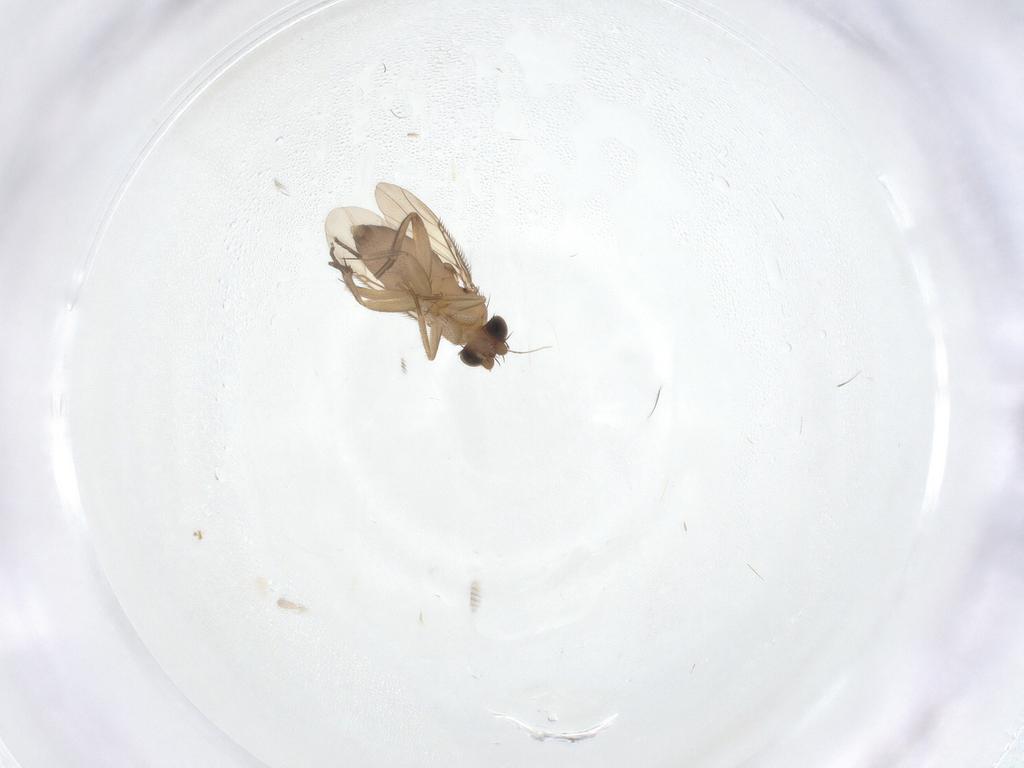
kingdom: Animalia
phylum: Arthropoda
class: Insecta
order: Diptera
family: Phoridae
